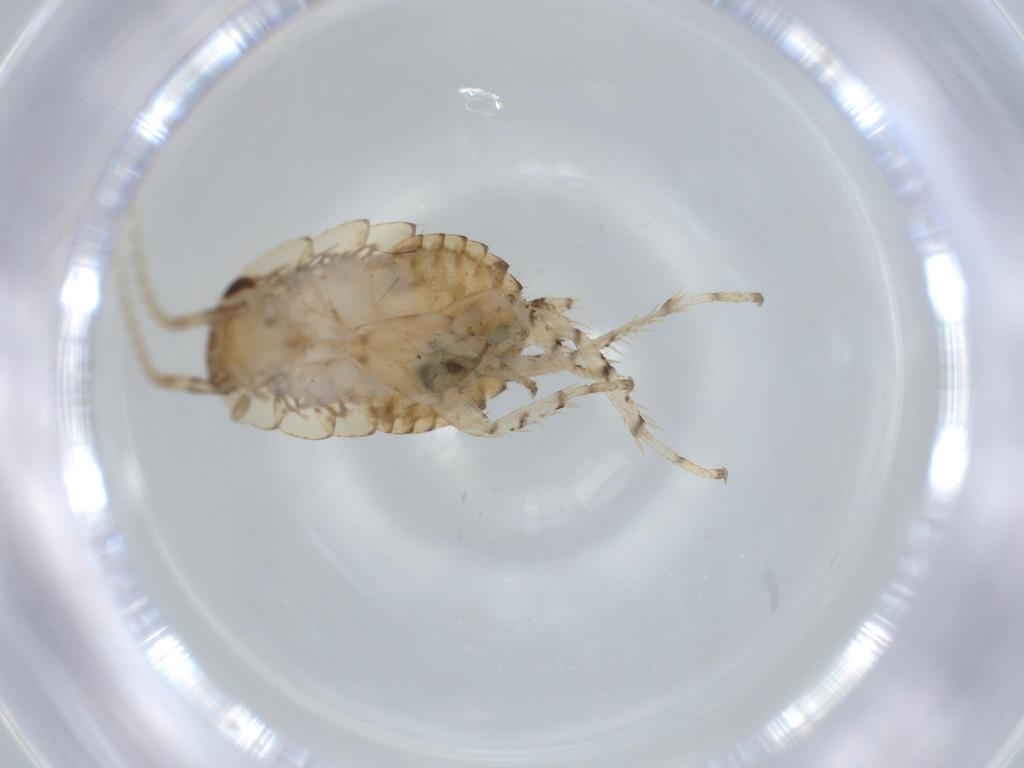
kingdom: Animalia
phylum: Arthropoda
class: Insecta
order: Blattodea
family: Ectobiidae
